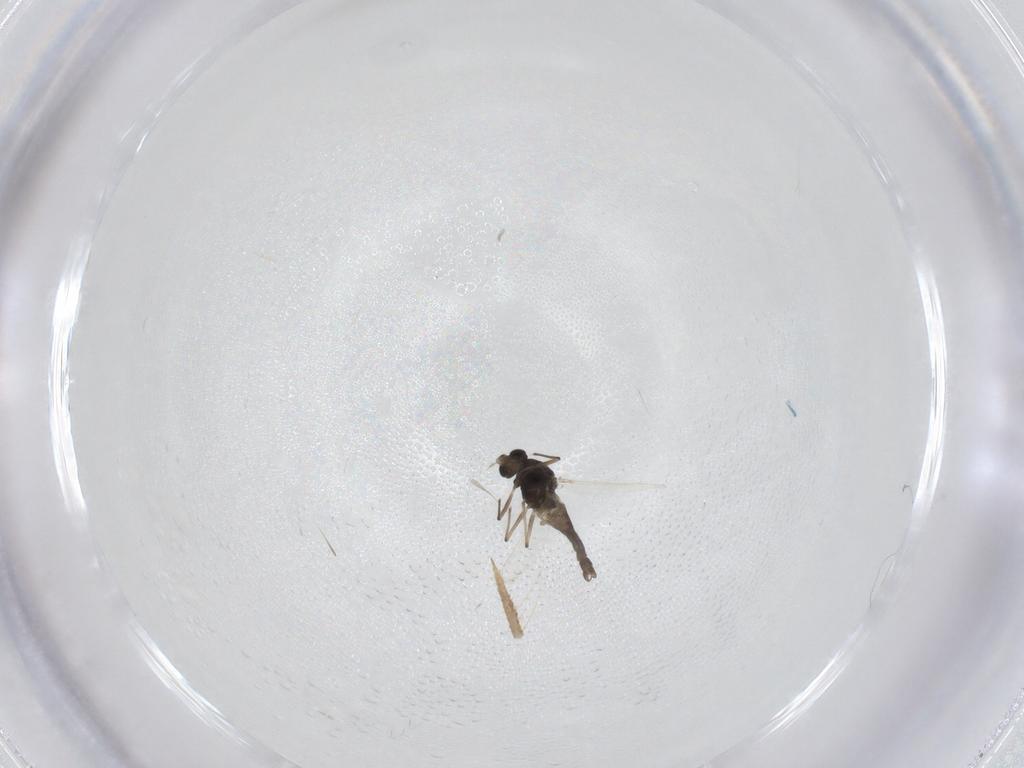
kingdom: Animalia
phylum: Arthropoda
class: Insecta
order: Diptera
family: Chironomidae
